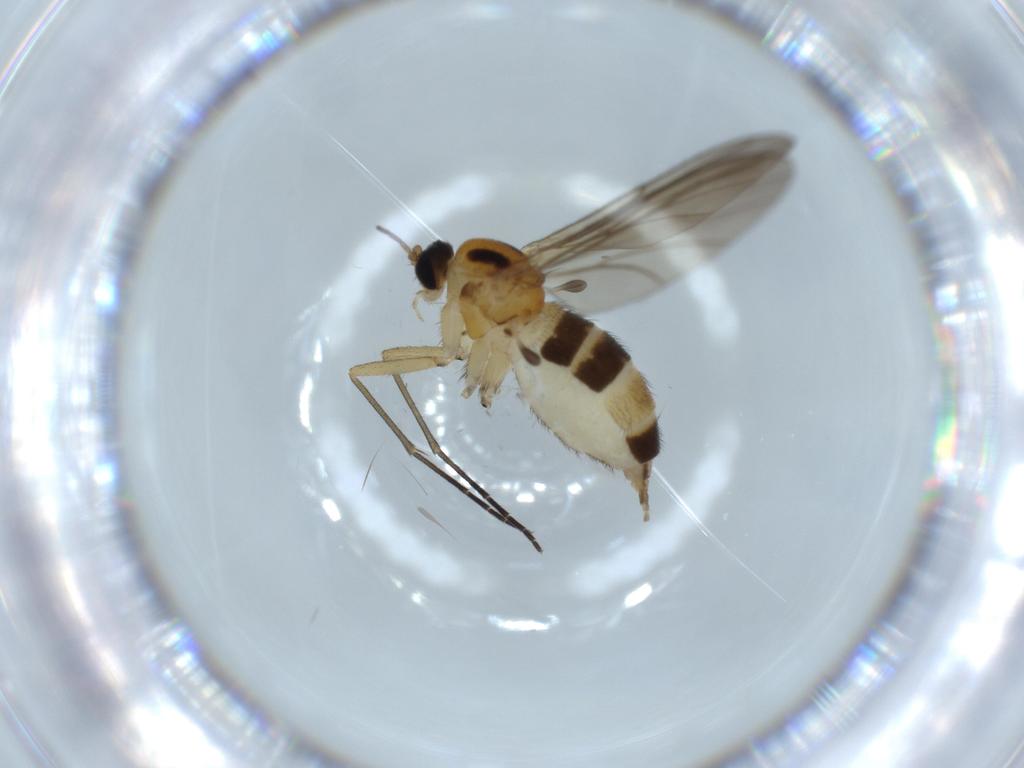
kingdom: Animalia
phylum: Arthropoda
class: Insecta
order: Diptera
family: Sciaridae
